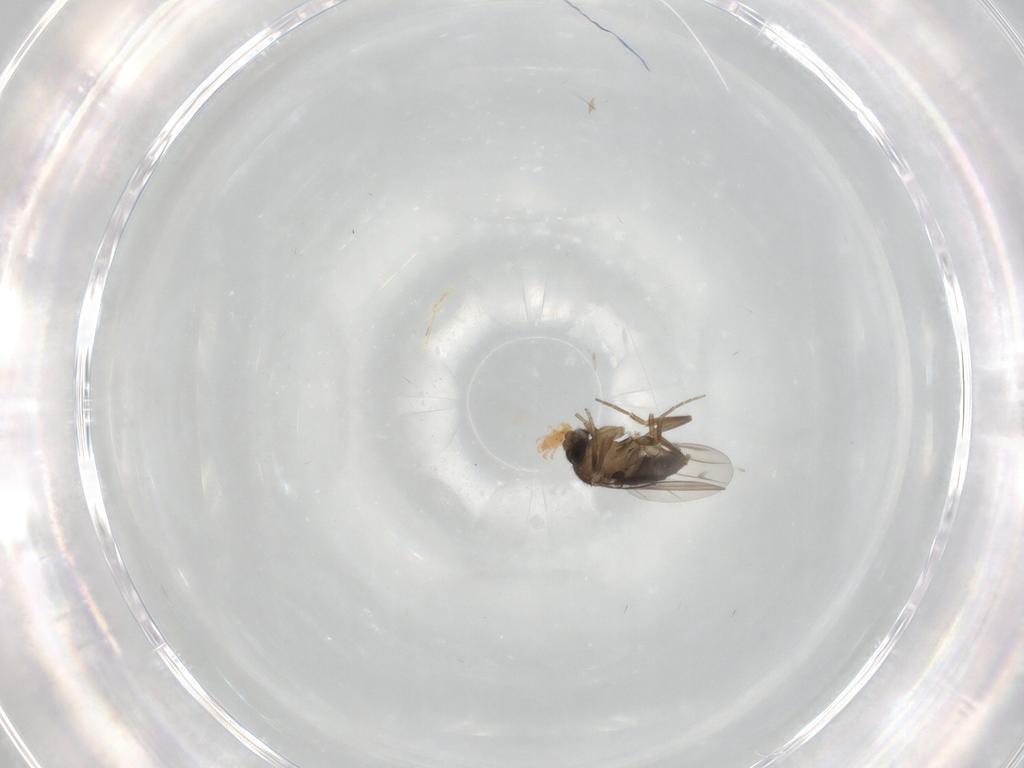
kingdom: Animalia
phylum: Arthropoda
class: Insecta
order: Diptera
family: Phoridae
